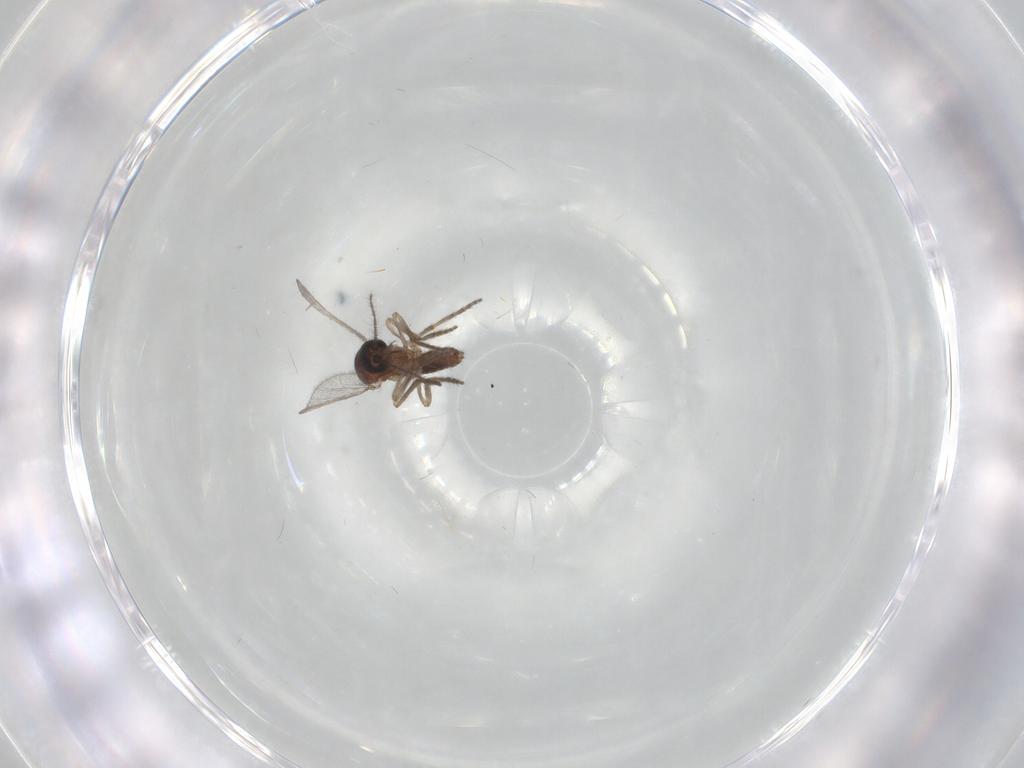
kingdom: Animalia
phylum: Arthropoda
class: Insecta
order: Diptera
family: Ceratopogonidae
